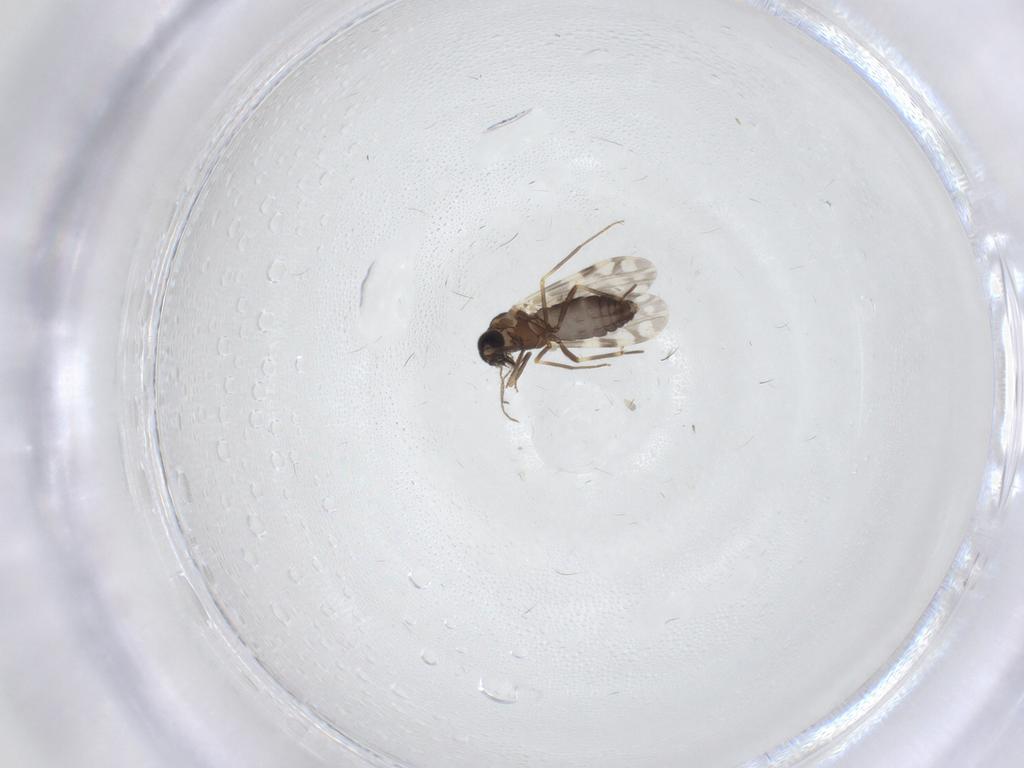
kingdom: Animalia
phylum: Arthropoda
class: Insecta
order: Diptera
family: Ceratopogonidae
